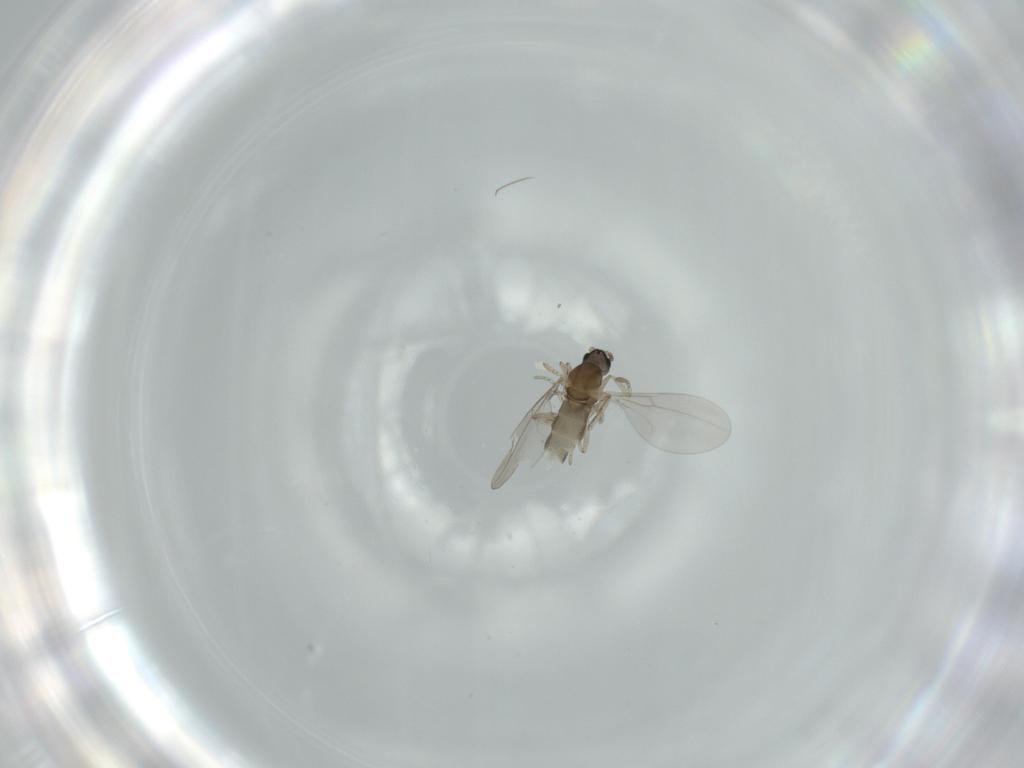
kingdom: Animalia
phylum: Arthropoda
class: Insecta
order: Diptera
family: Cecidomyiidae
